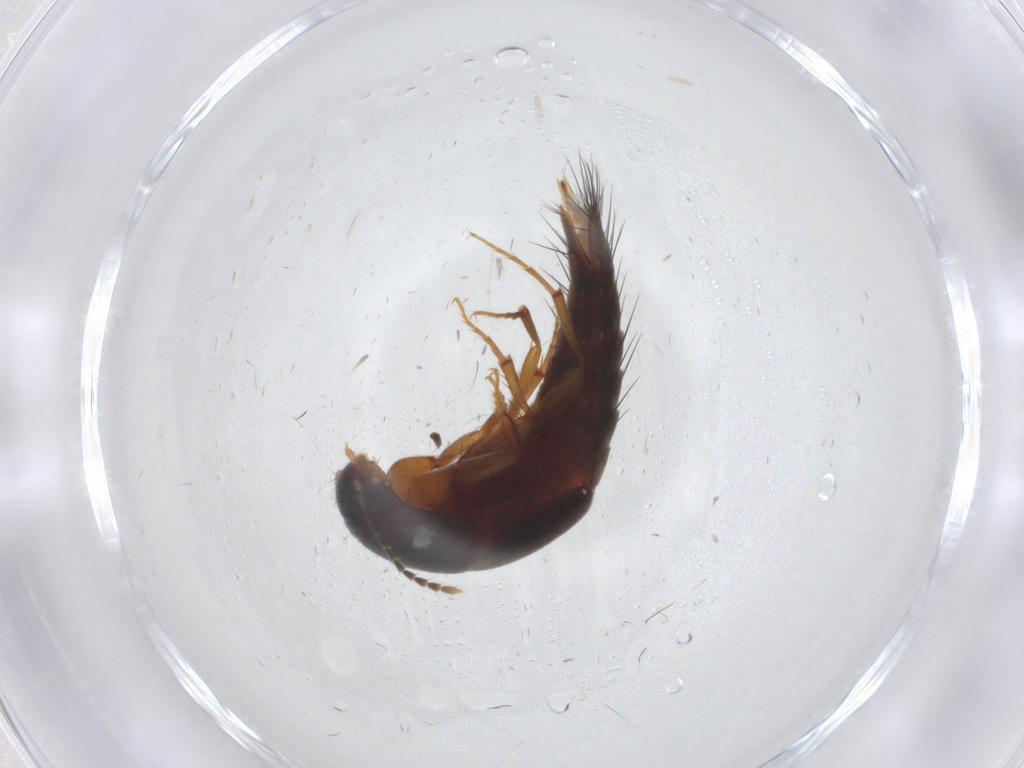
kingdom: Animalia
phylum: Arthropoda
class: Insecta
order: Coleoptera
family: Staphylinidae
